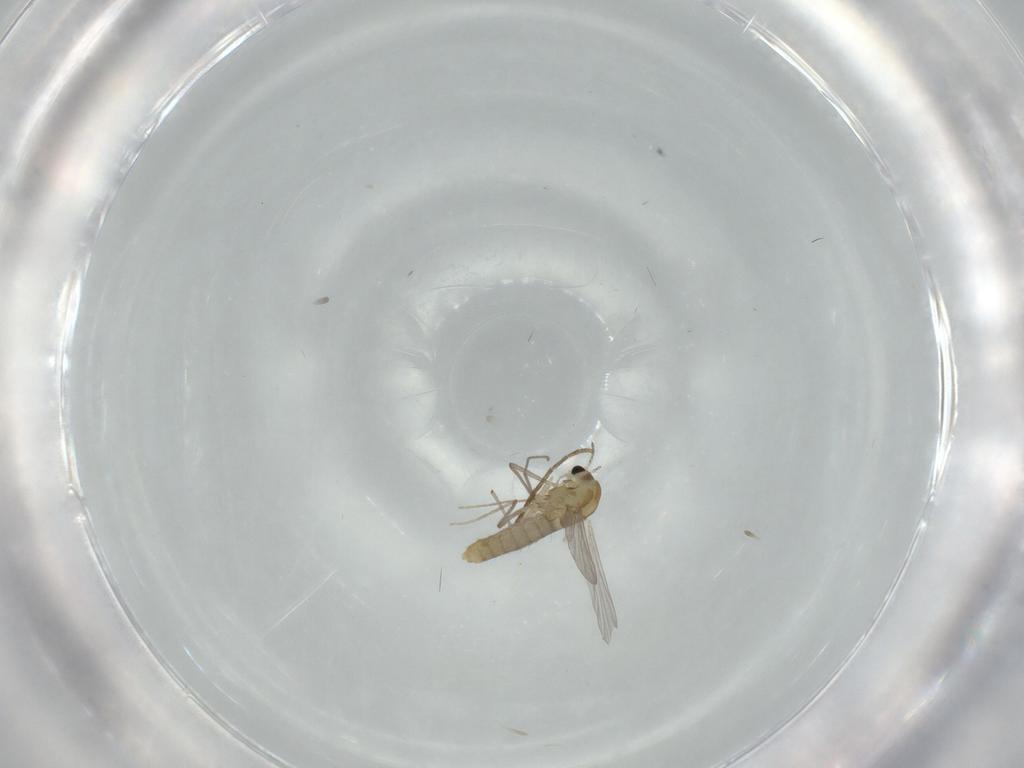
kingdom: Animalia
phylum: Arthropoda
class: Insecta
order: Diptera
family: Chironomidae
